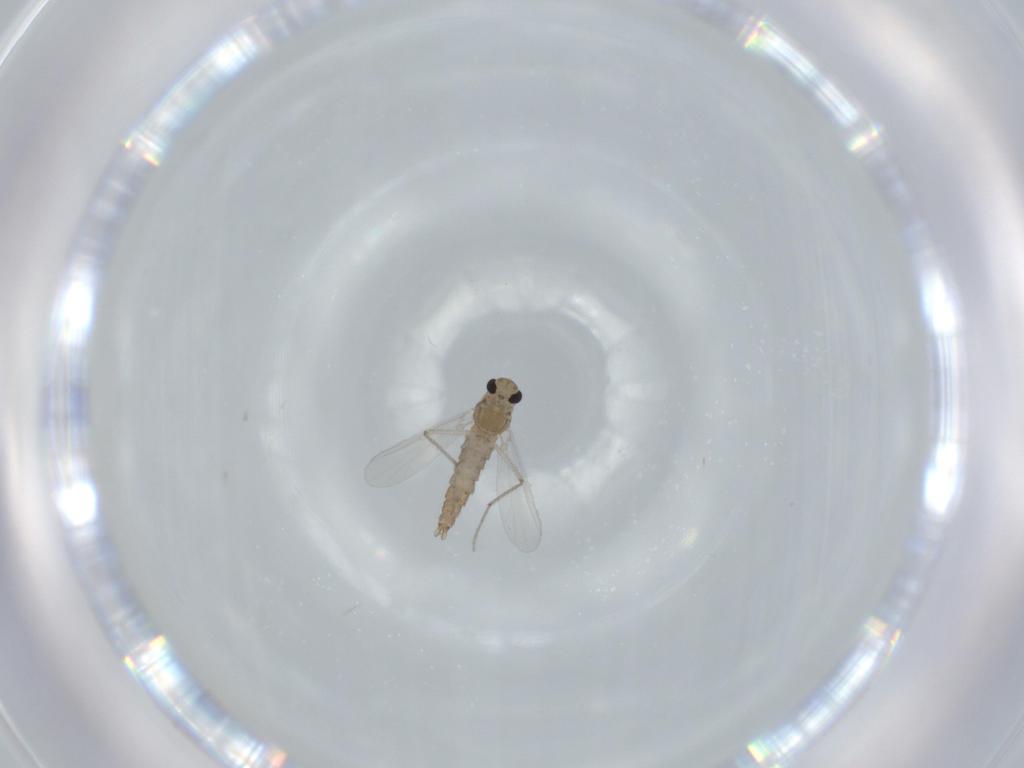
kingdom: Animalia
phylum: Arthropoda
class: Insecta
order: Diptera
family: Chironomidae
